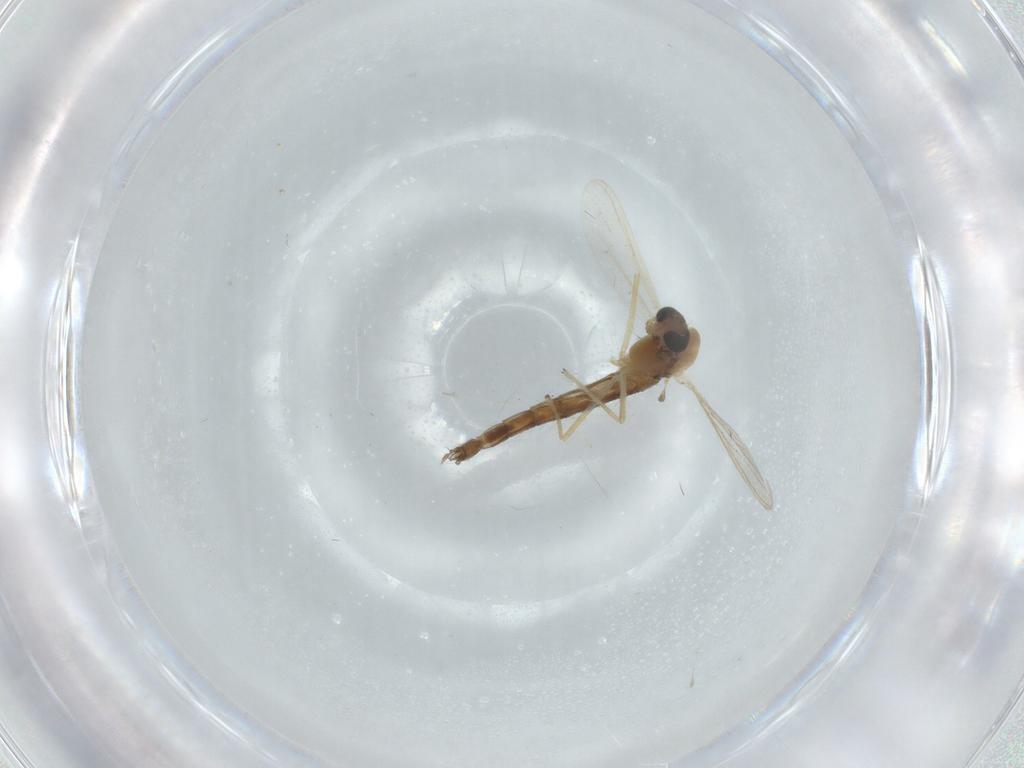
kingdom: Animalia
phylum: Arthropoda
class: Insecta
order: Diptera
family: Chironomidae
